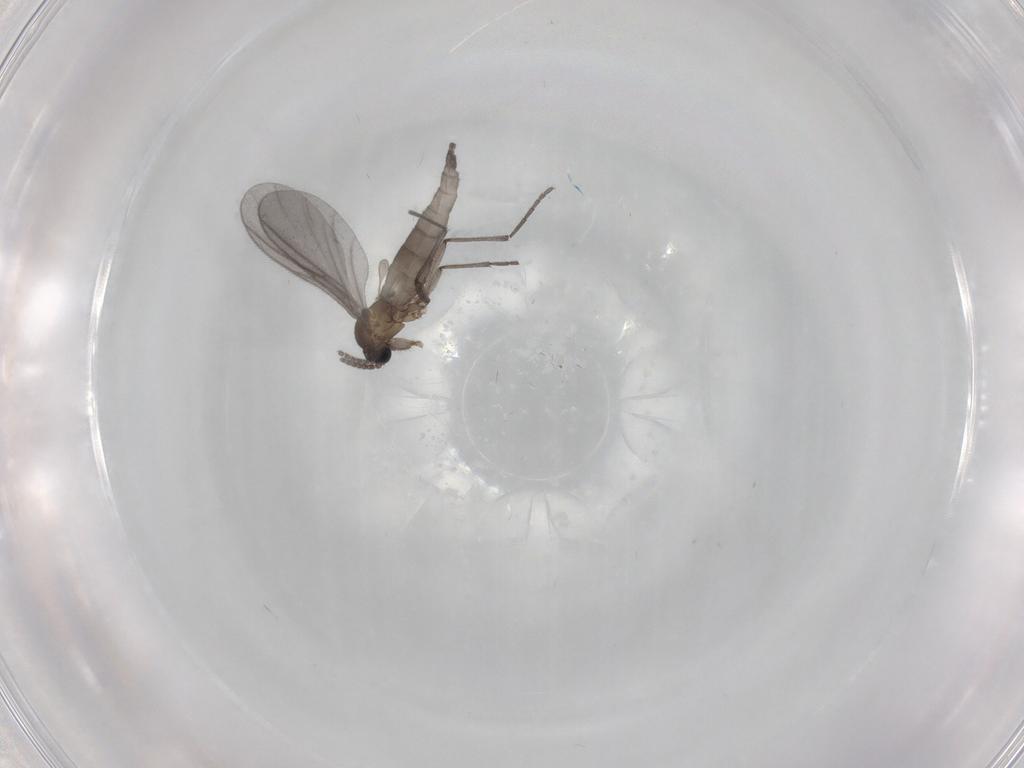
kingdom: Animalia
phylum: Arthropoda
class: Insecta
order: Diptera
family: Sciaridae
